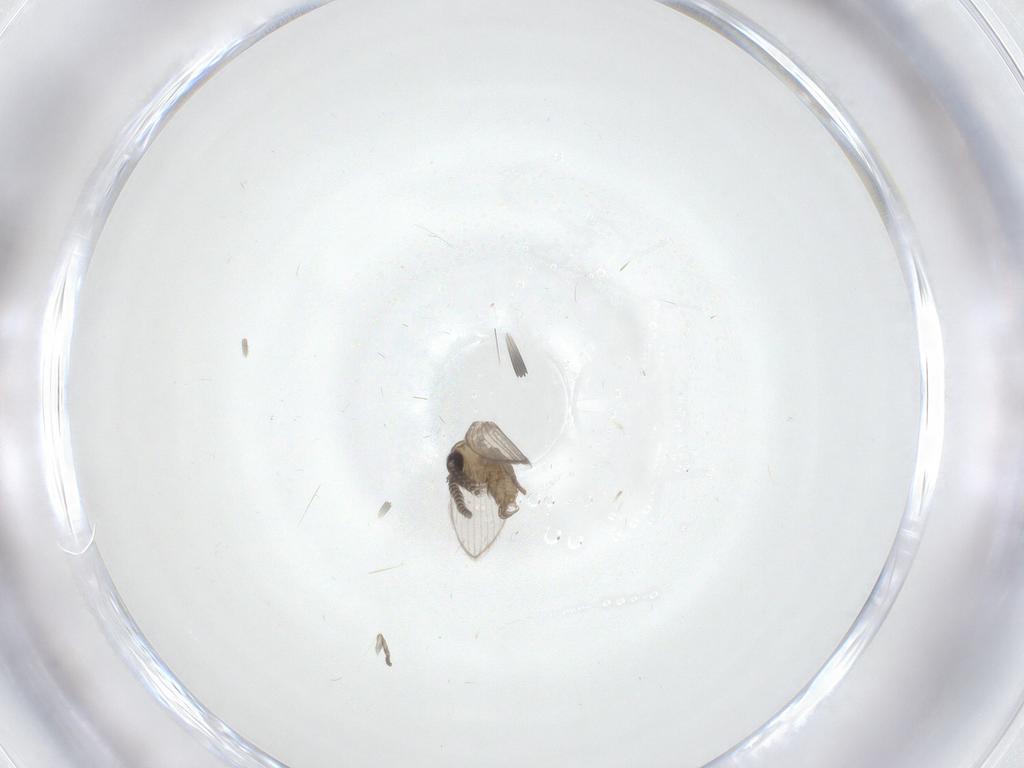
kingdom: Animalia
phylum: Arthropoda
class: Insecta
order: Diptera
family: Psychodidae
